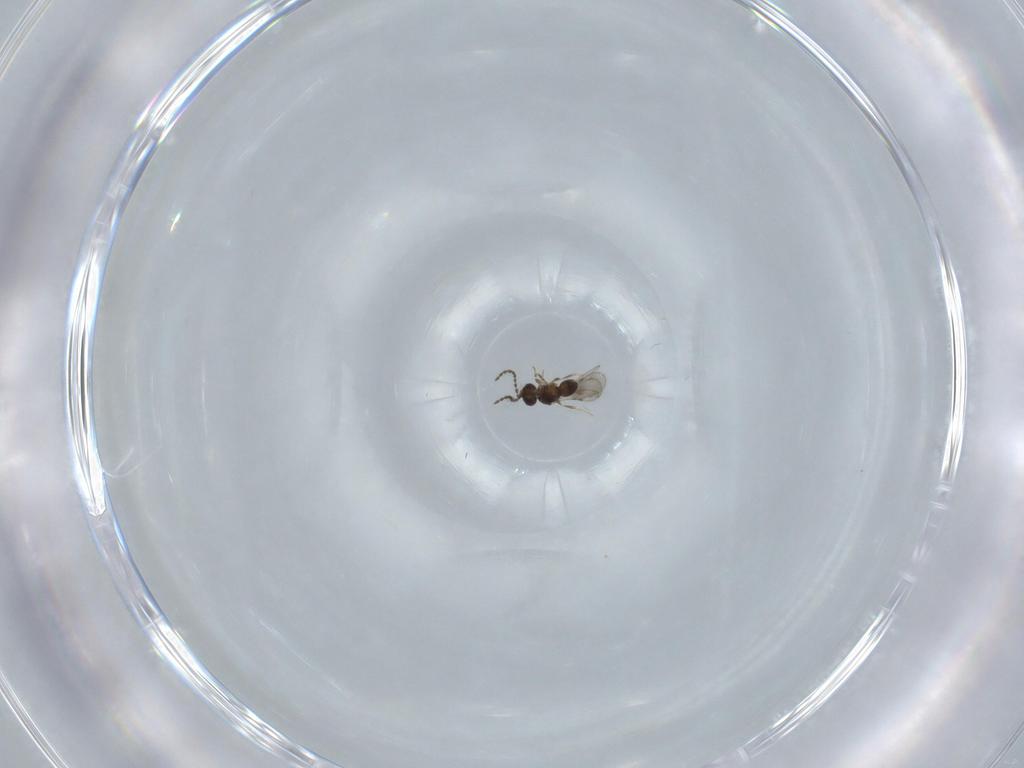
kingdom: Animalia
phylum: Arthropoda
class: Insecta
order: Hymenoptera
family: Ceraphronidae
